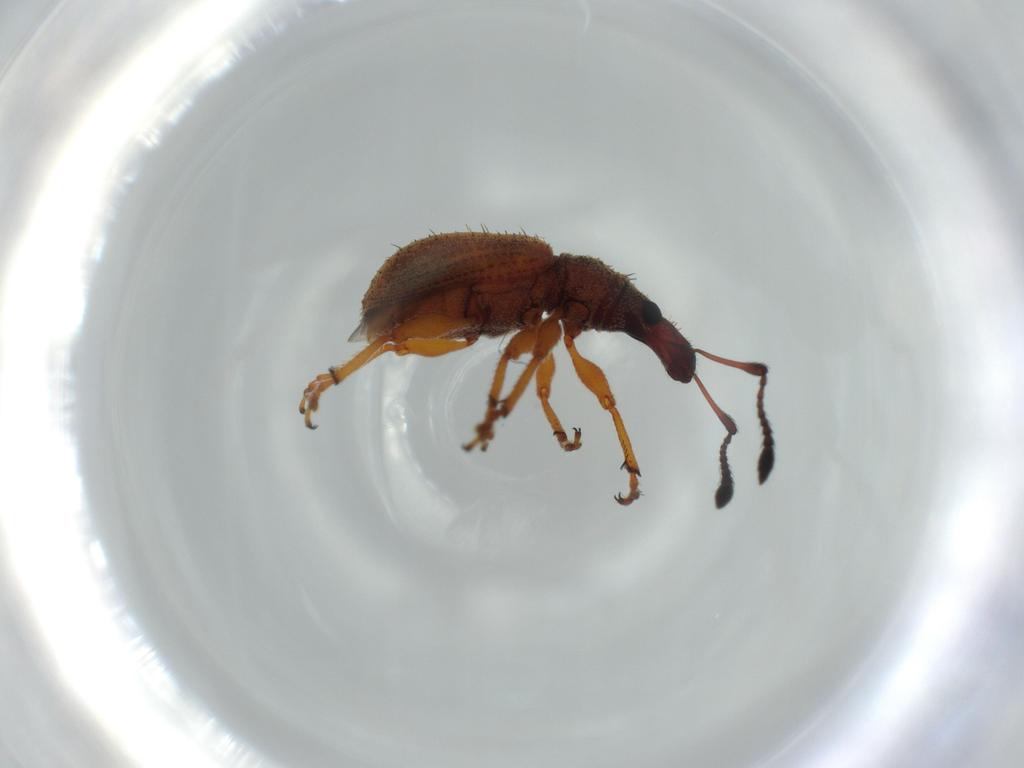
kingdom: Animalia
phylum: Arthropoda
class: Insecta
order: Coleoptera
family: Curculionidae
